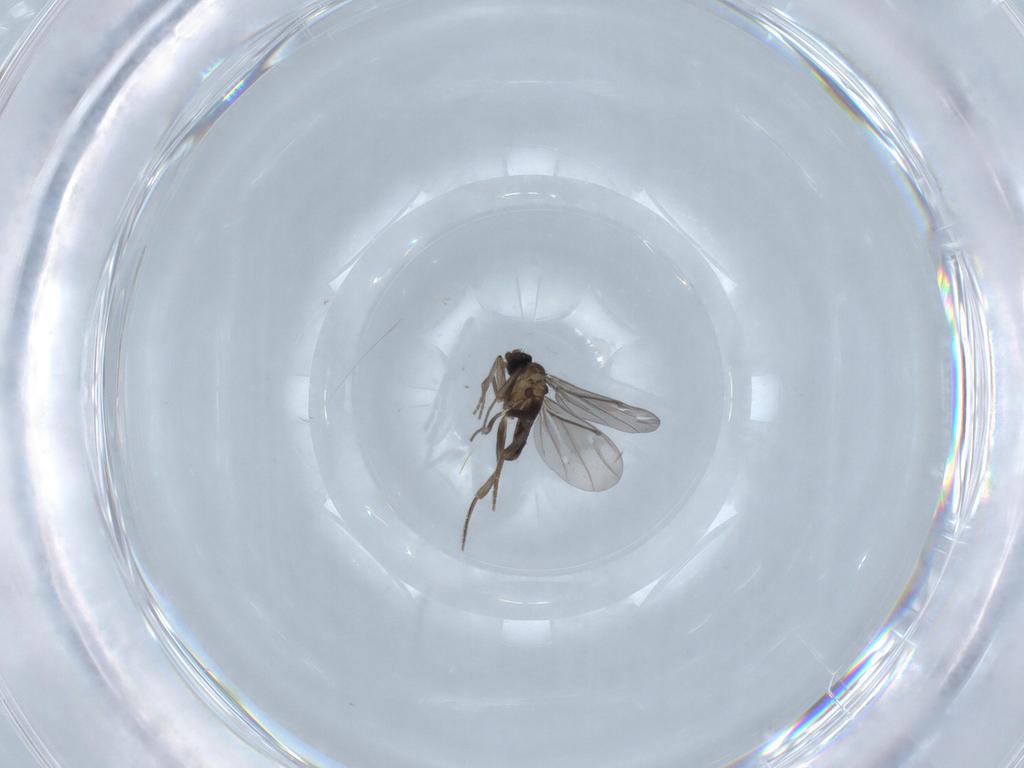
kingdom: Animalia
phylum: Arthropoda
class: Insecta
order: Diptera
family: Phoridae
